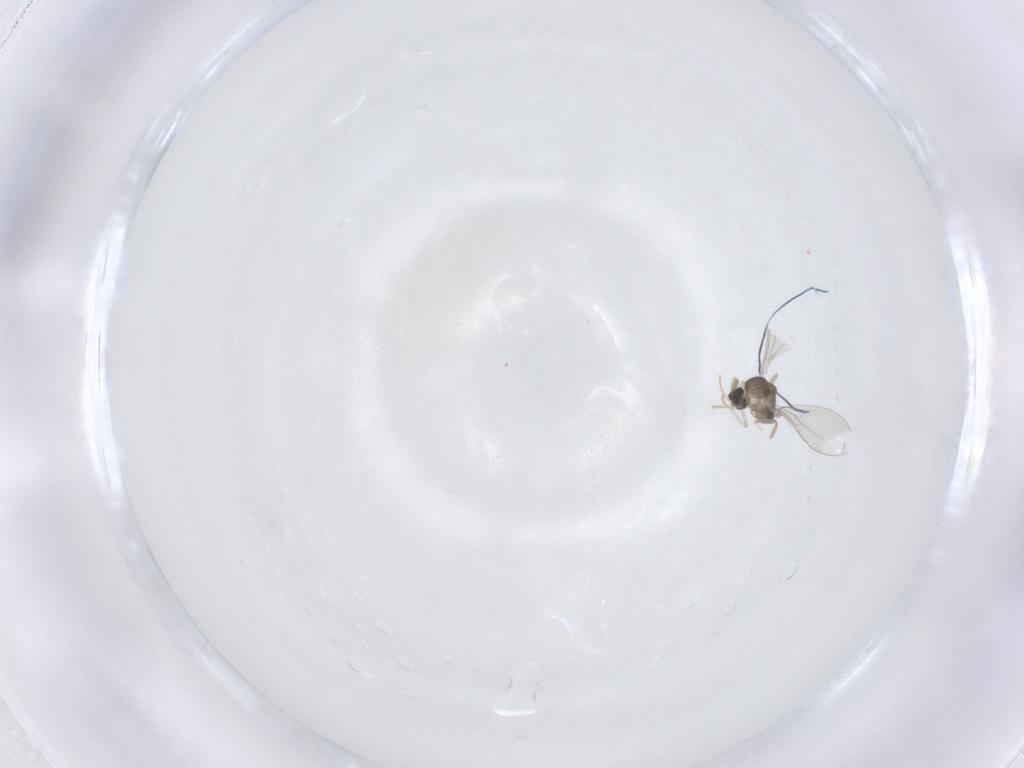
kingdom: Animalia
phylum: Arthropoda
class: Insecta
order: Diptera
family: Cecidomyiidae
